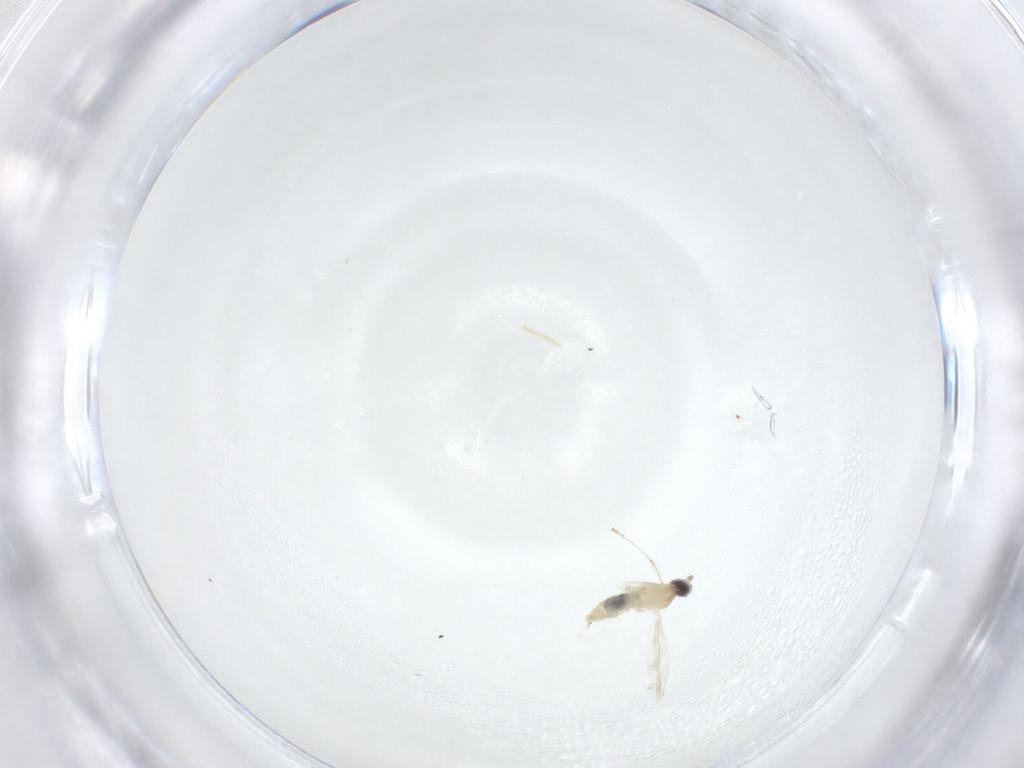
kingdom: Animalia
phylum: Arthropoda
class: Insecta
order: Diptera
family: Cecidomyiidae
